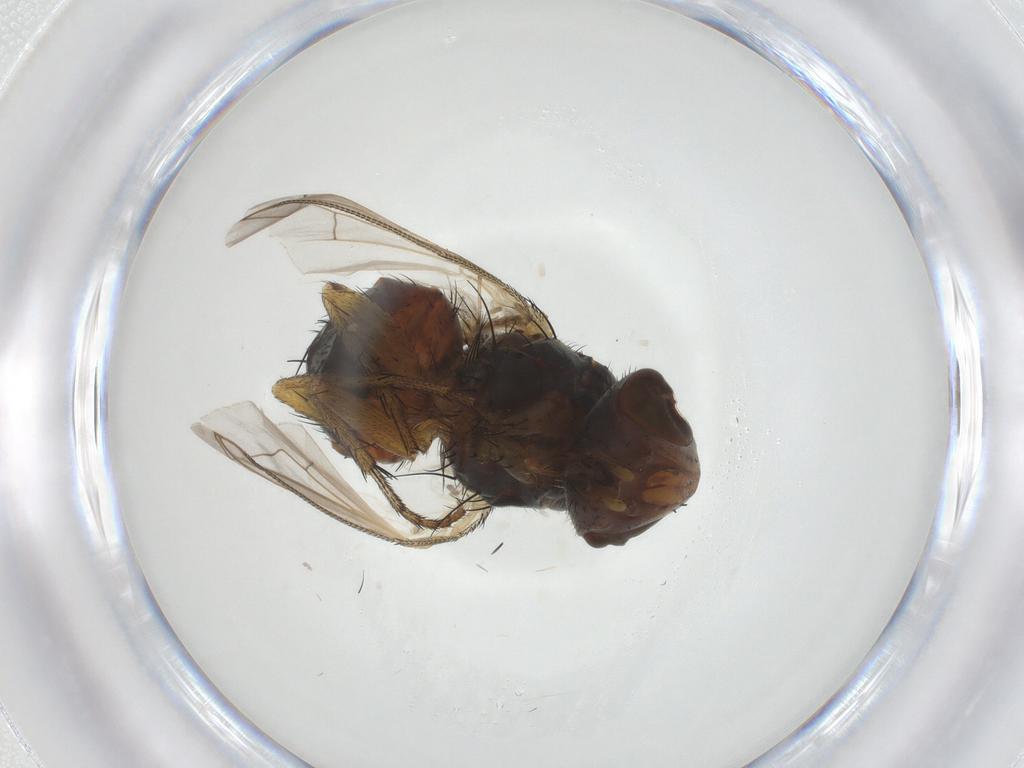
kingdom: Animalia
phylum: Arthropoda
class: Insecta
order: Diptera
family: Sarcophagidae
